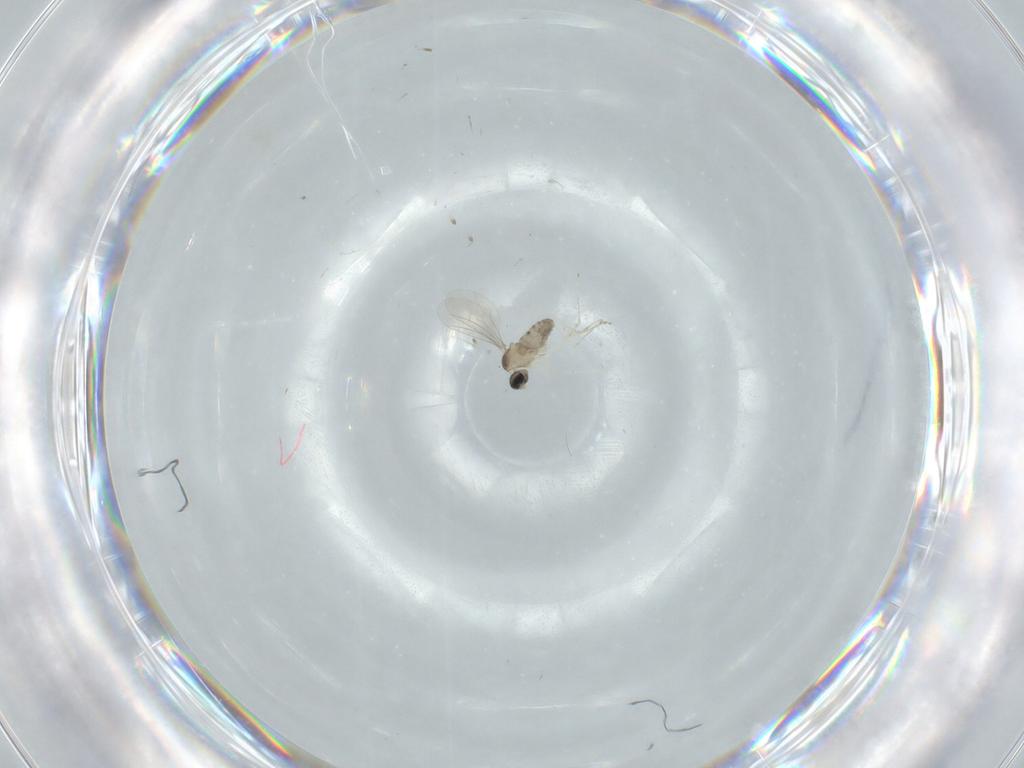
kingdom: Animalia
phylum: Arthropoda
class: Insecta
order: Diptera
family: Cecidomyiidae
